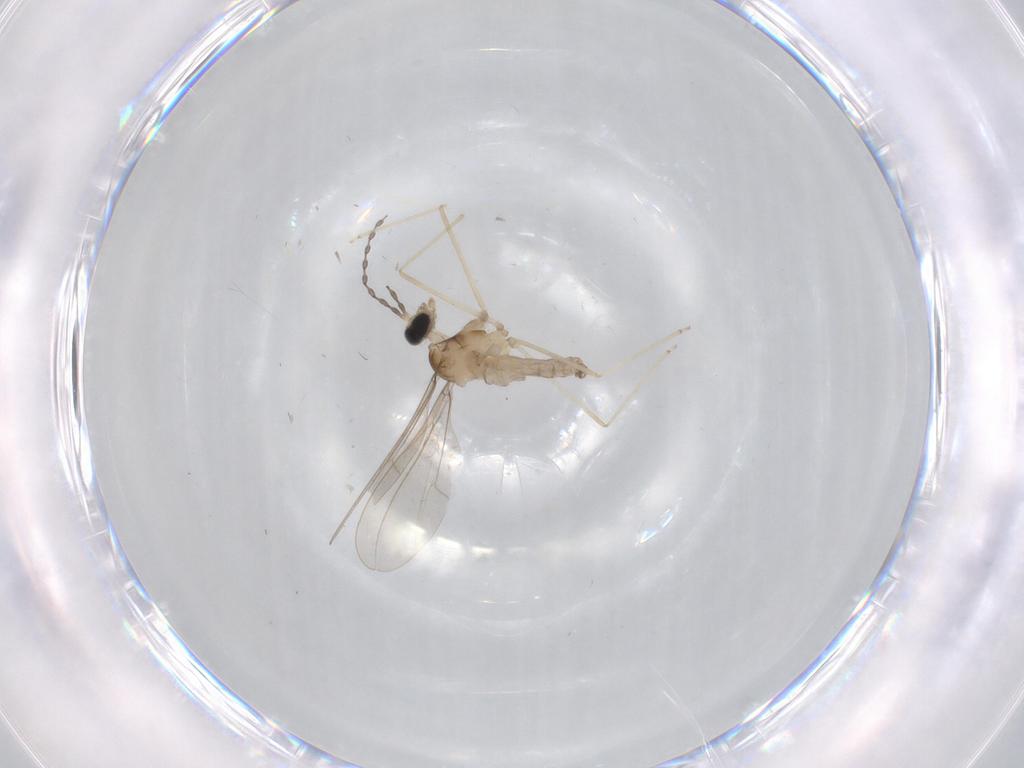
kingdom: Animalia
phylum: Arthropoda
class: Insecta
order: Diptera
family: Cecidomyiidae
